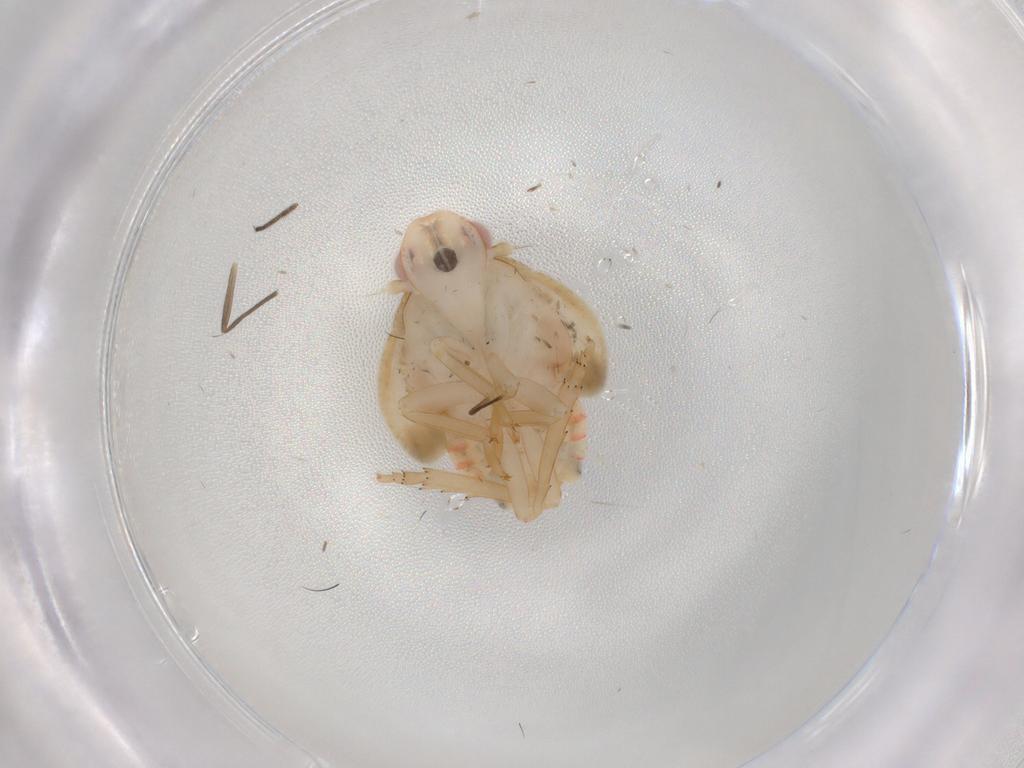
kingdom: Animalia
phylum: Arthropoda
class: Insecta
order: Hemiptera
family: Flatidae
